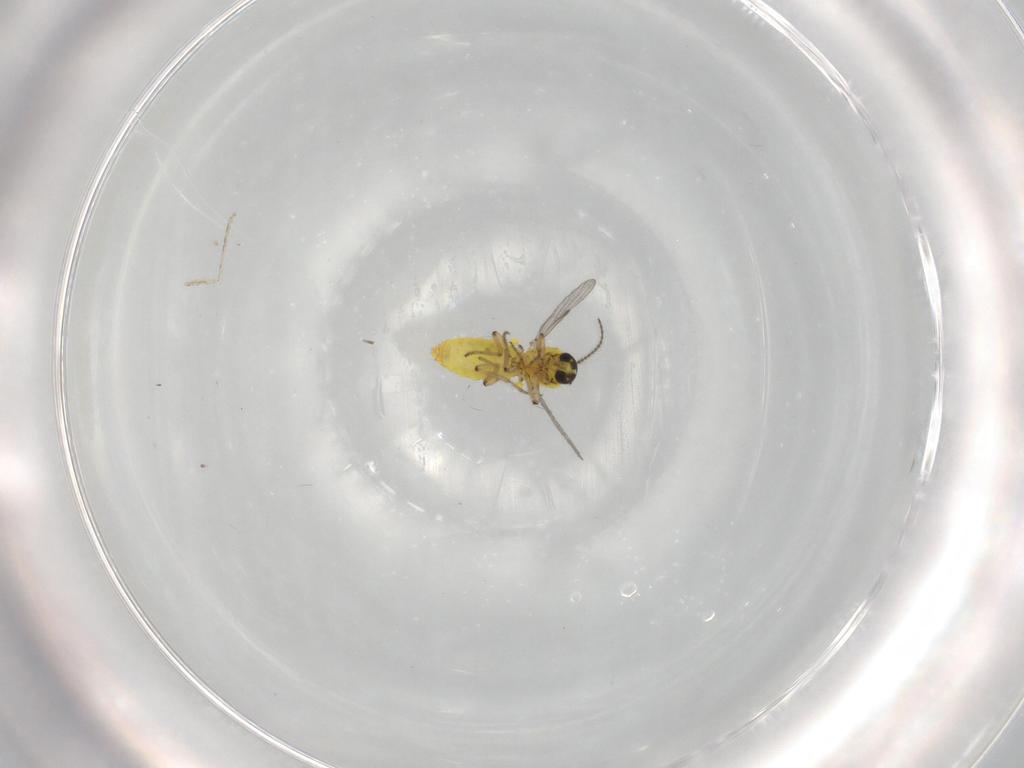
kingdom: Animalia
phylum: Arthropoda
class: Insecta
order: Diptera
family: Ceratopogonidae
